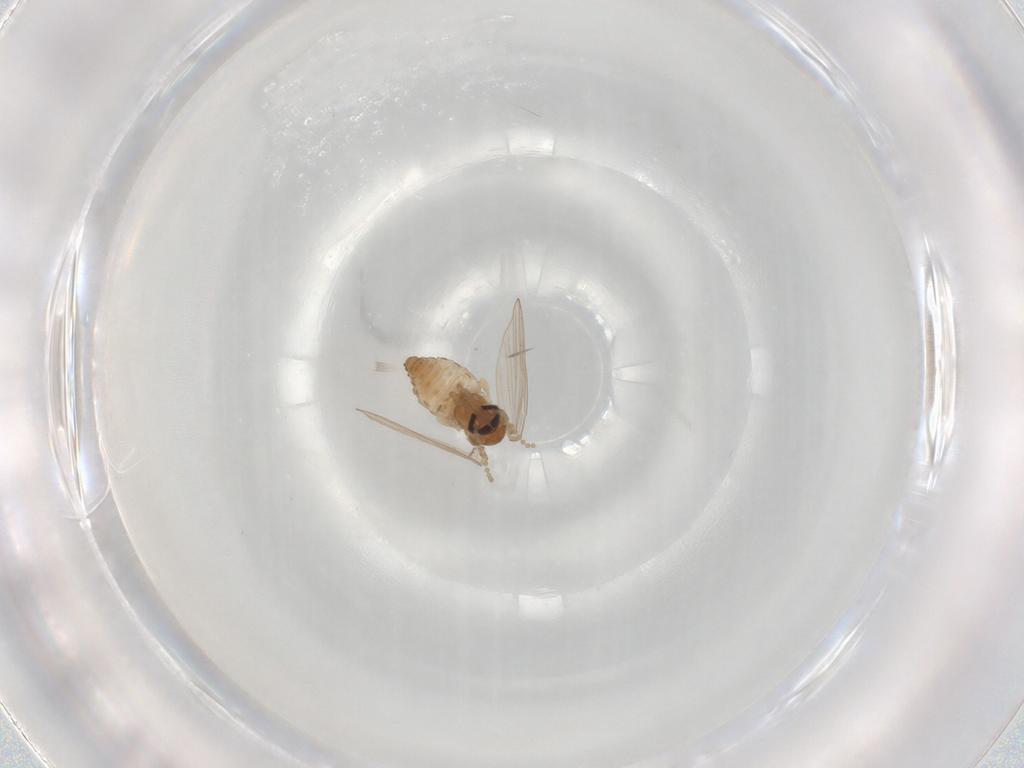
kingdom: Animalia
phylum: Arthropoda
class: Insecta
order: Diptera
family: Psychodidae
